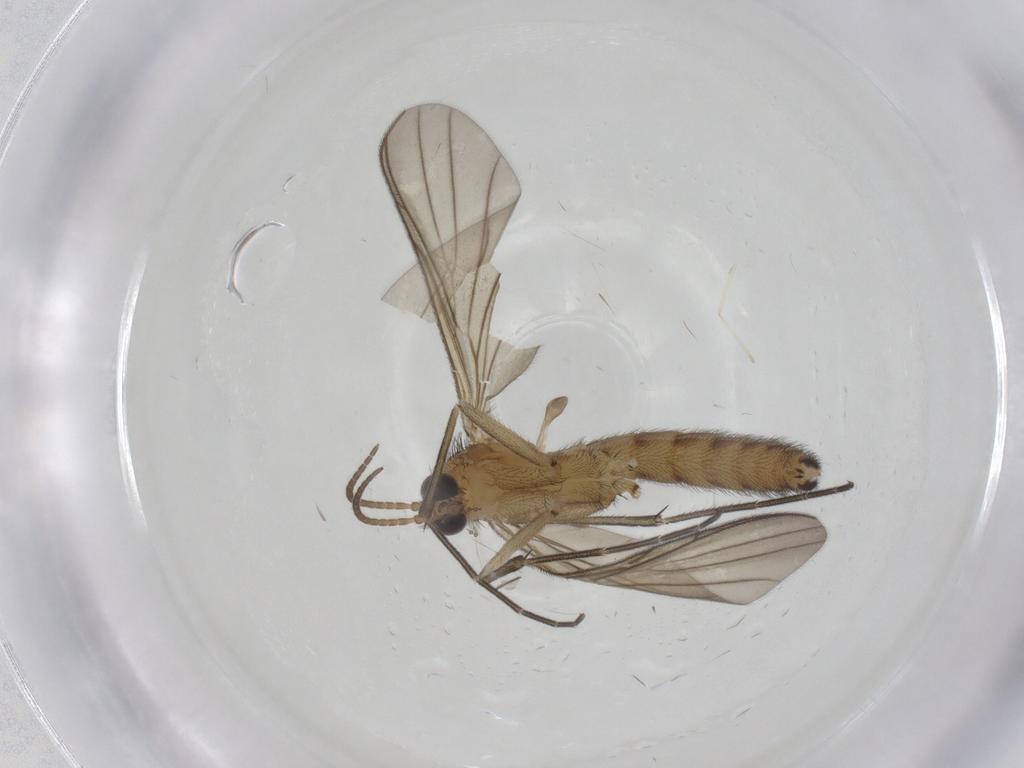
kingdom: Animalia
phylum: Arthropoda
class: Insecta
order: Diptera
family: Keroplatidae
